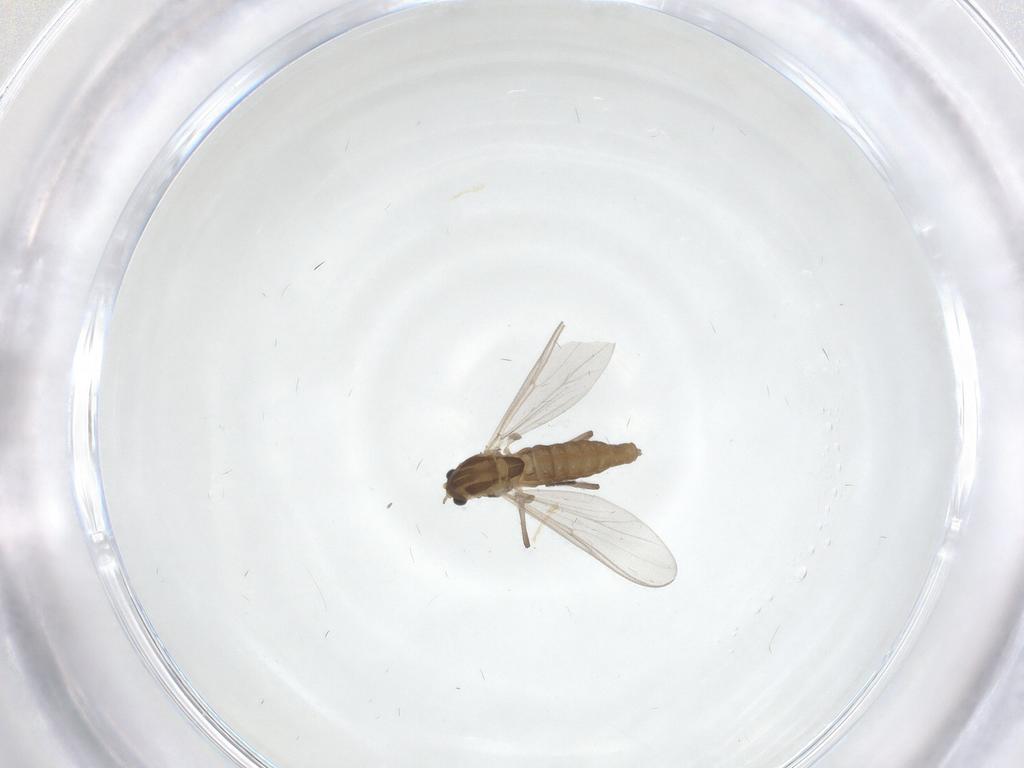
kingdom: Animalia
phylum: Arthropoda
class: Insecta
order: Diptera
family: Chironomidae
